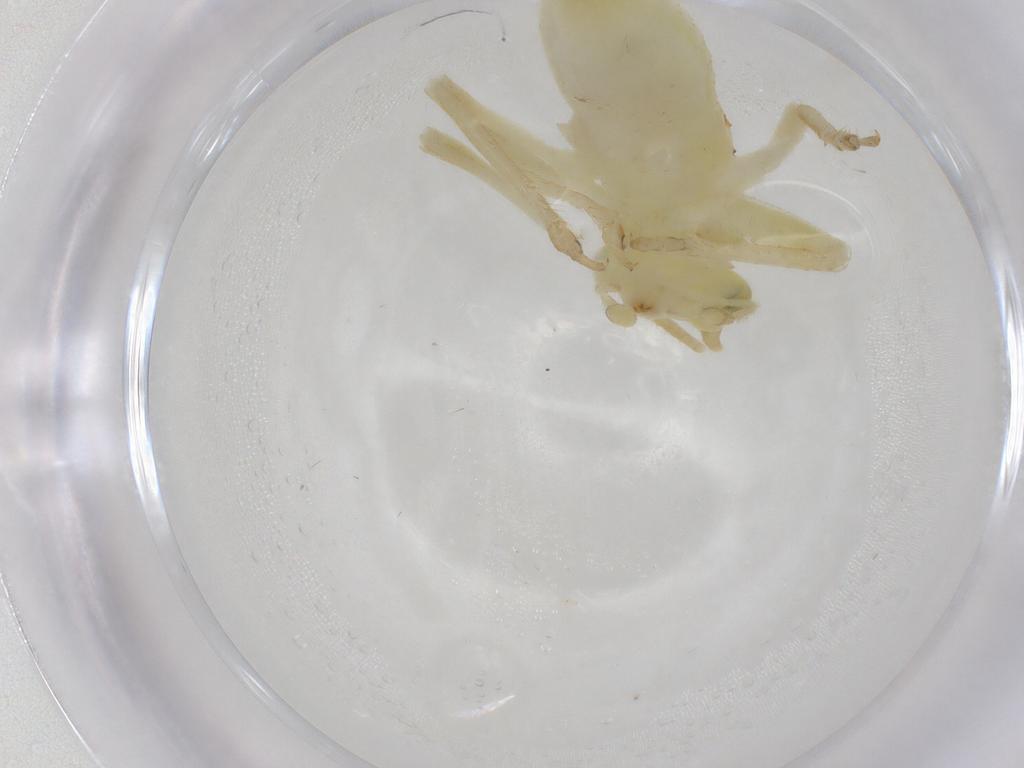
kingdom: Animalia
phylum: Arthropoda
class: Insecta
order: Orthoptera
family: Trigonidiidae
